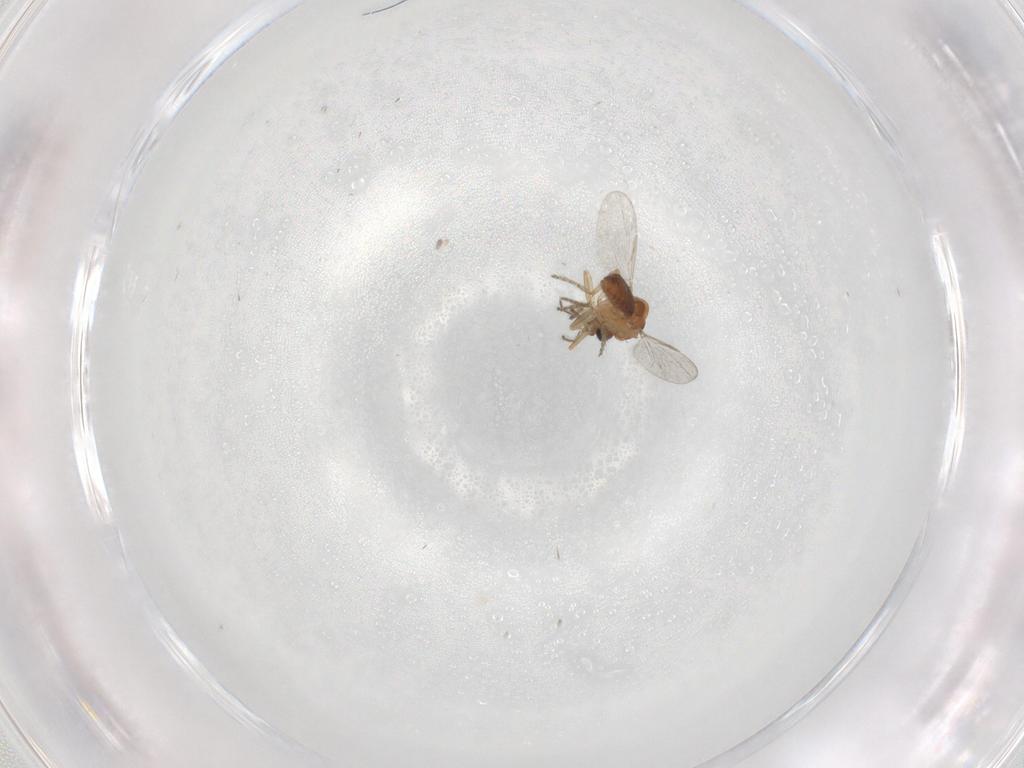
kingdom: Animalia
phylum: Arthropoda
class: Insecta
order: Diptera
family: Ceratopogonidae
